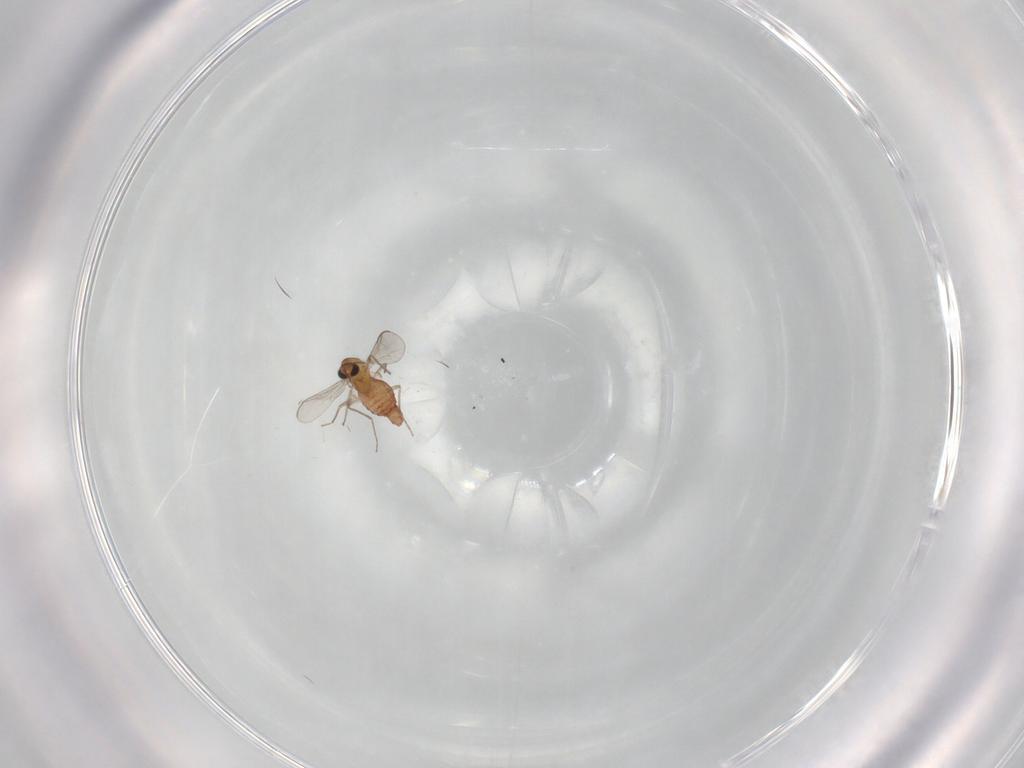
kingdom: Animalia
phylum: Arthropoda
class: Insecta
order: Diptera
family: Chironomidae
